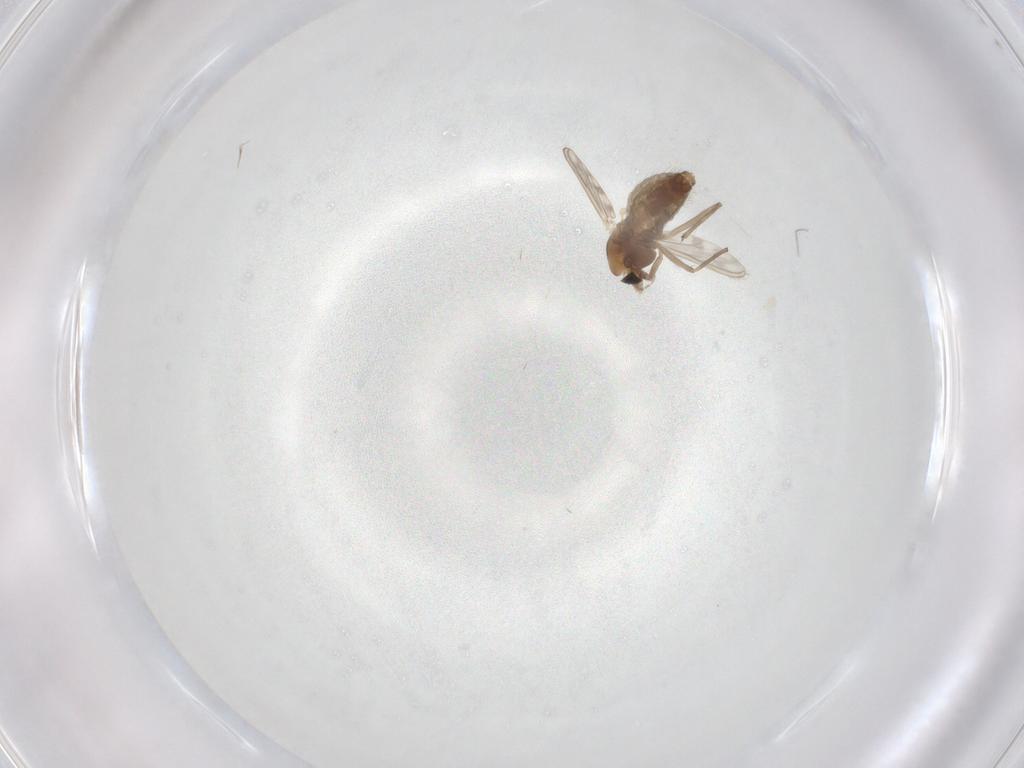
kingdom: Animalia
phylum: Arthropoda
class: Insecta
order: Diptera
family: Chironomidae
